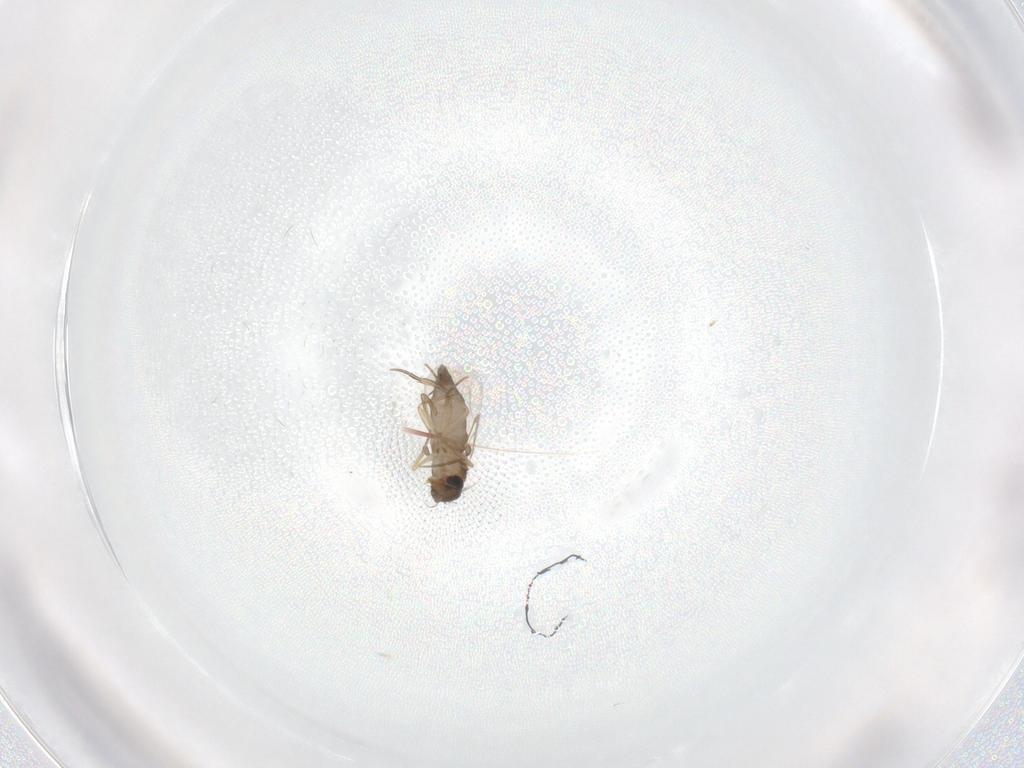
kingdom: Animalia
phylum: Arthropoda
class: Insecta
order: Diptera
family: Phoridae
